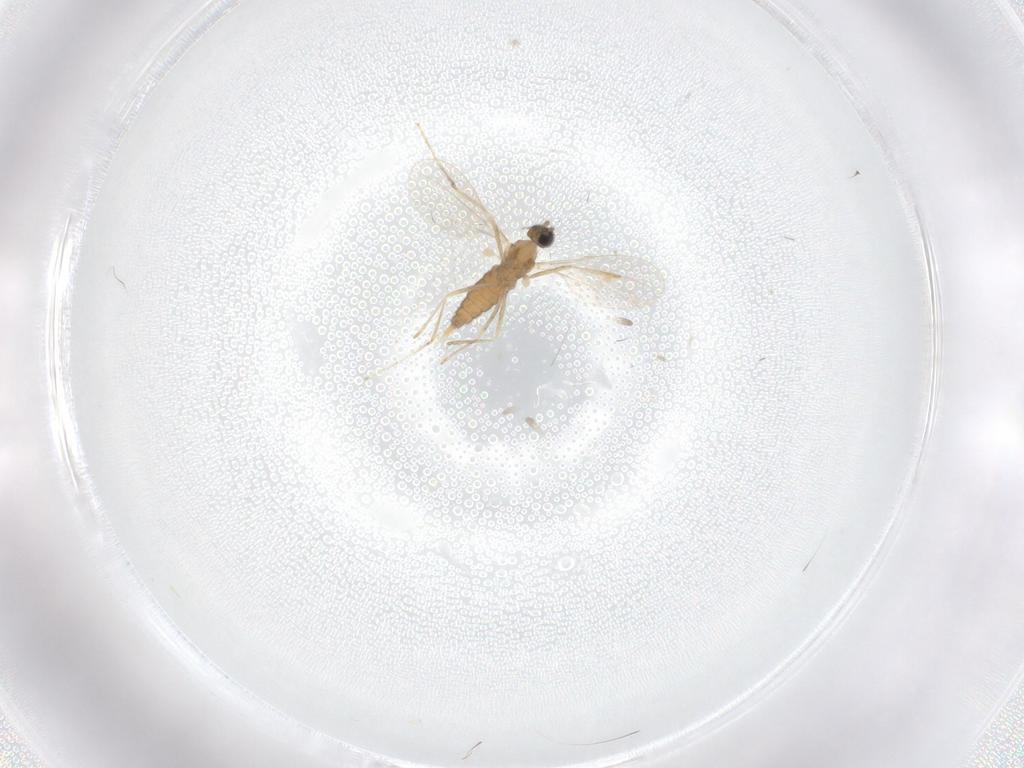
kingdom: Animalia
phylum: Arthropoda
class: Insecta
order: Diptera
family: Cecidomyiidae
